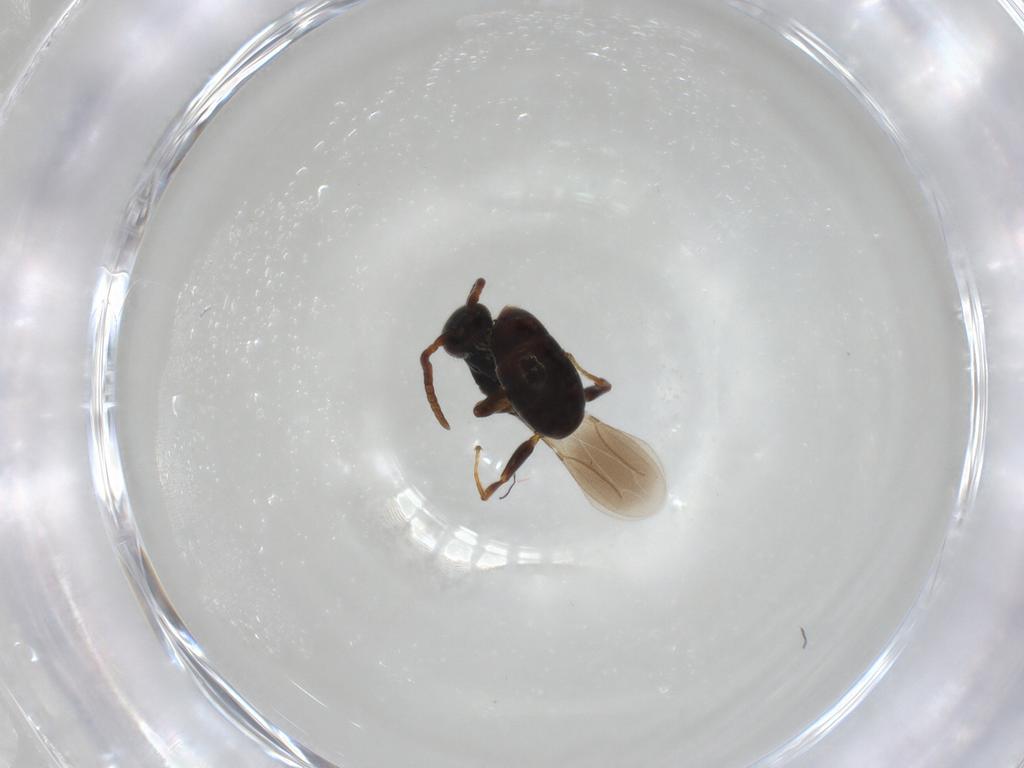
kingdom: Animalia
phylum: Arthropoda
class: Insecta
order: Hymenoptera
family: Bethylidae
